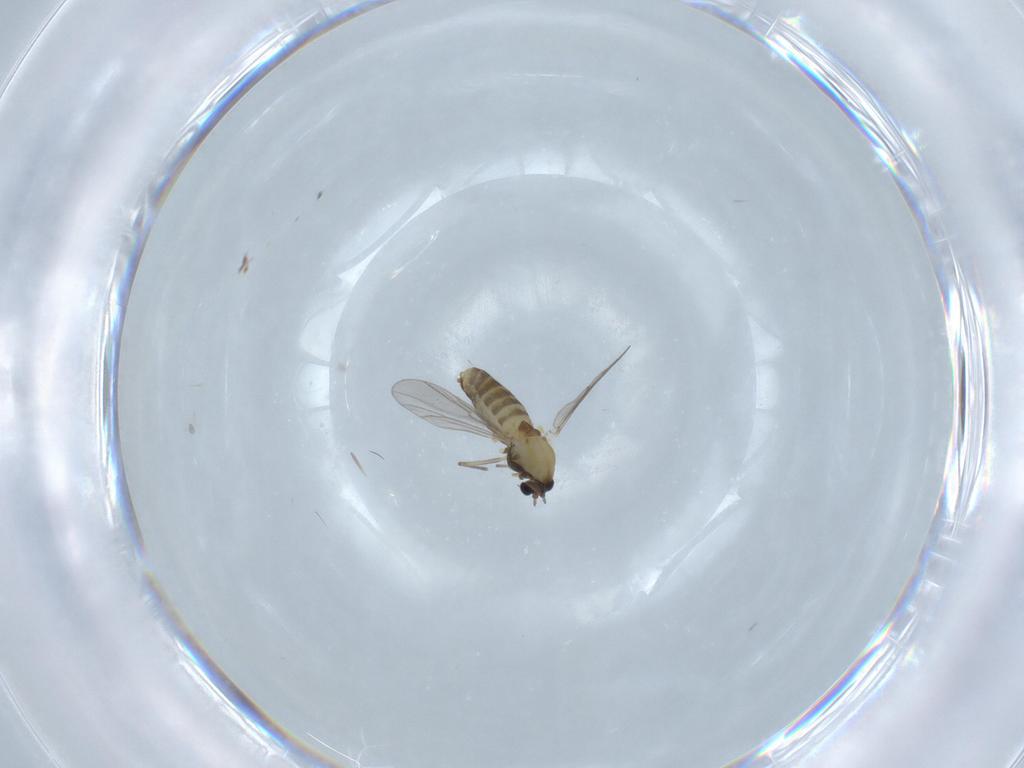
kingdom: Animalia
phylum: Arthropoda
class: Insecta
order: Diptera
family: Chironomidae
